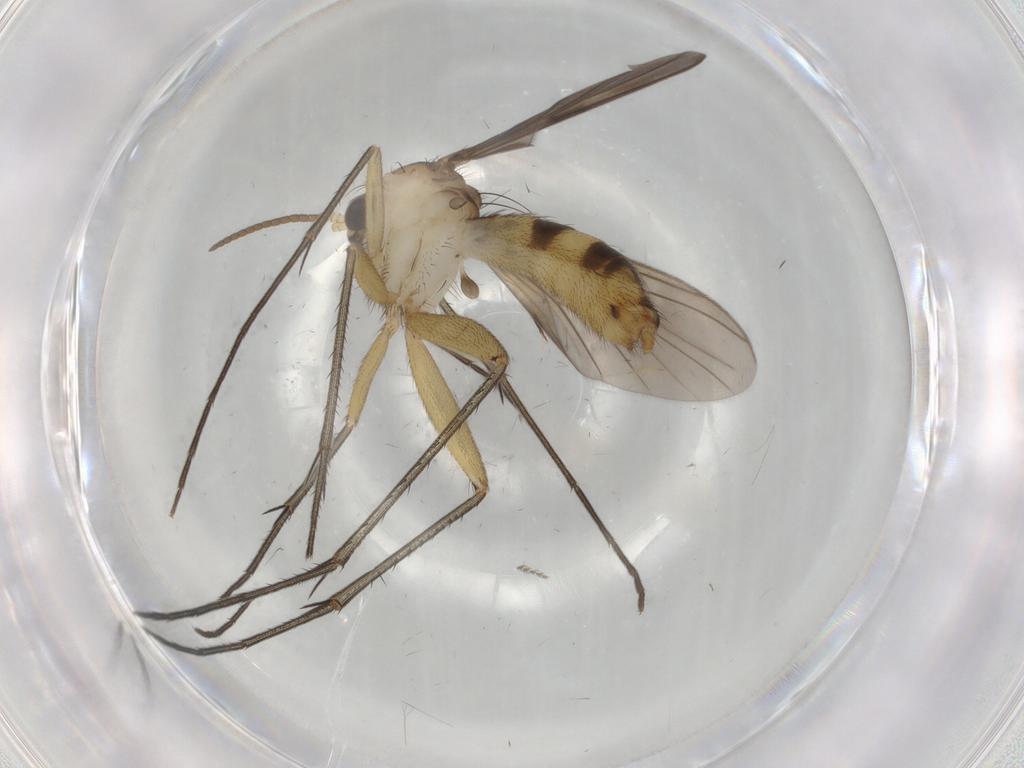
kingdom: Animalia
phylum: Arthropoda
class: Insecta
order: Diptera
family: Ceratopogonidae
